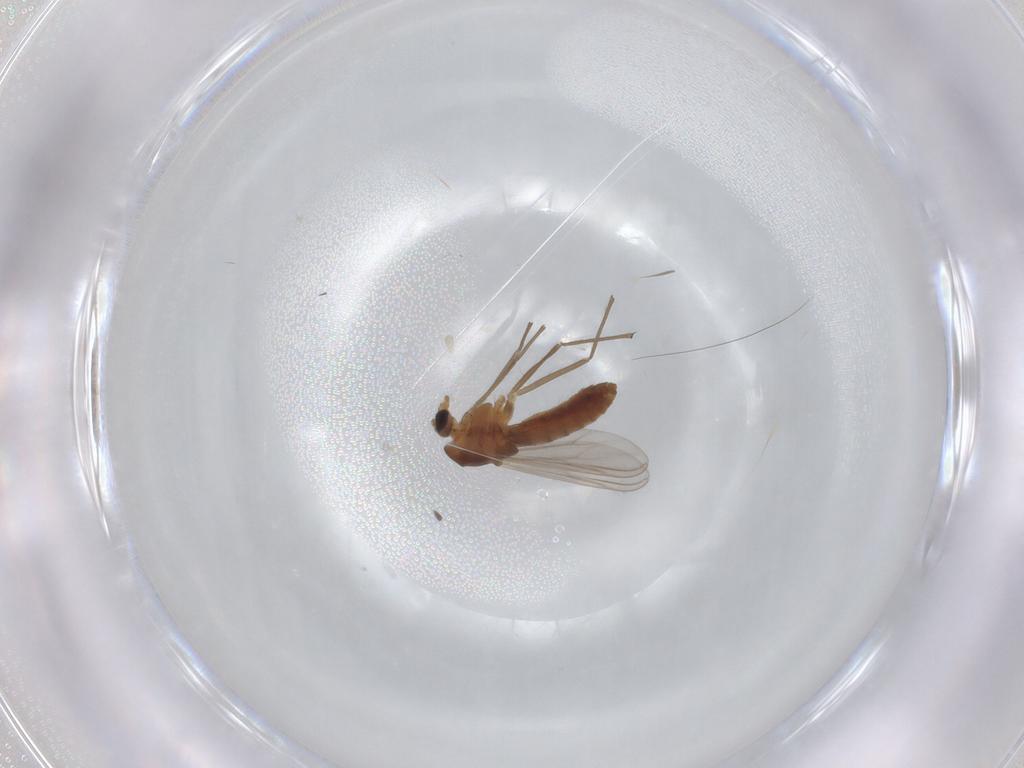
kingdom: Animalia
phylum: Arthropoda
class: Insecta
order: Diptera
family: Chironomidae
